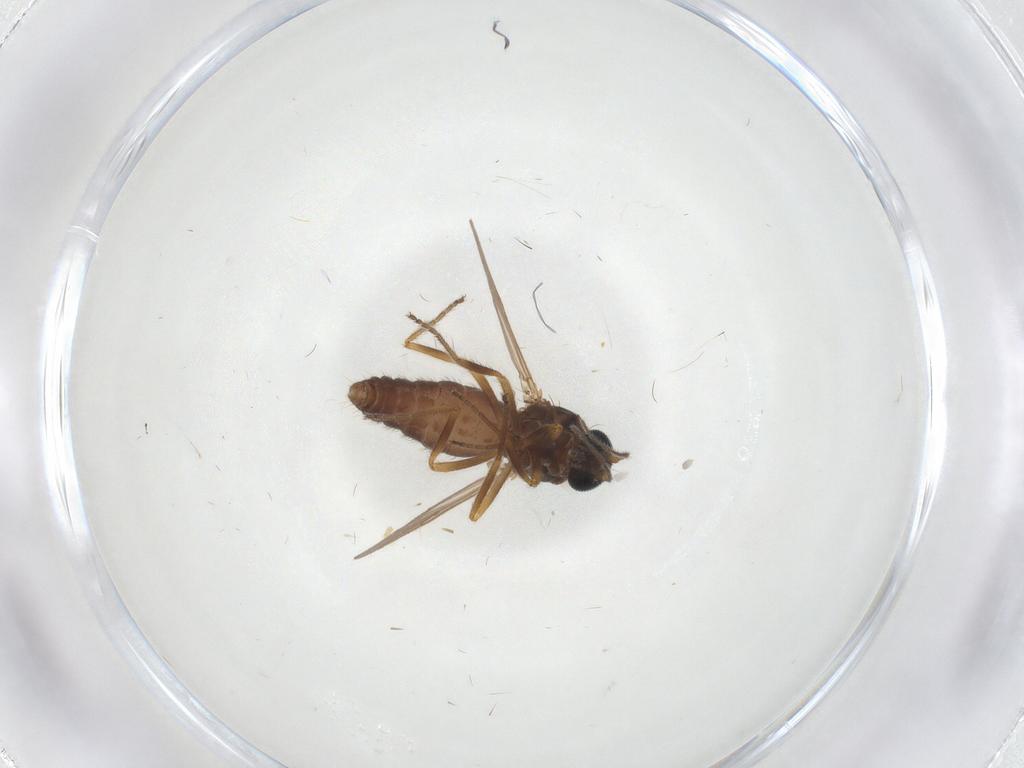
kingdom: Animalia
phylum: Arthropoda
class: Insecta
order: Diptera
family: Ceratopogonidae
